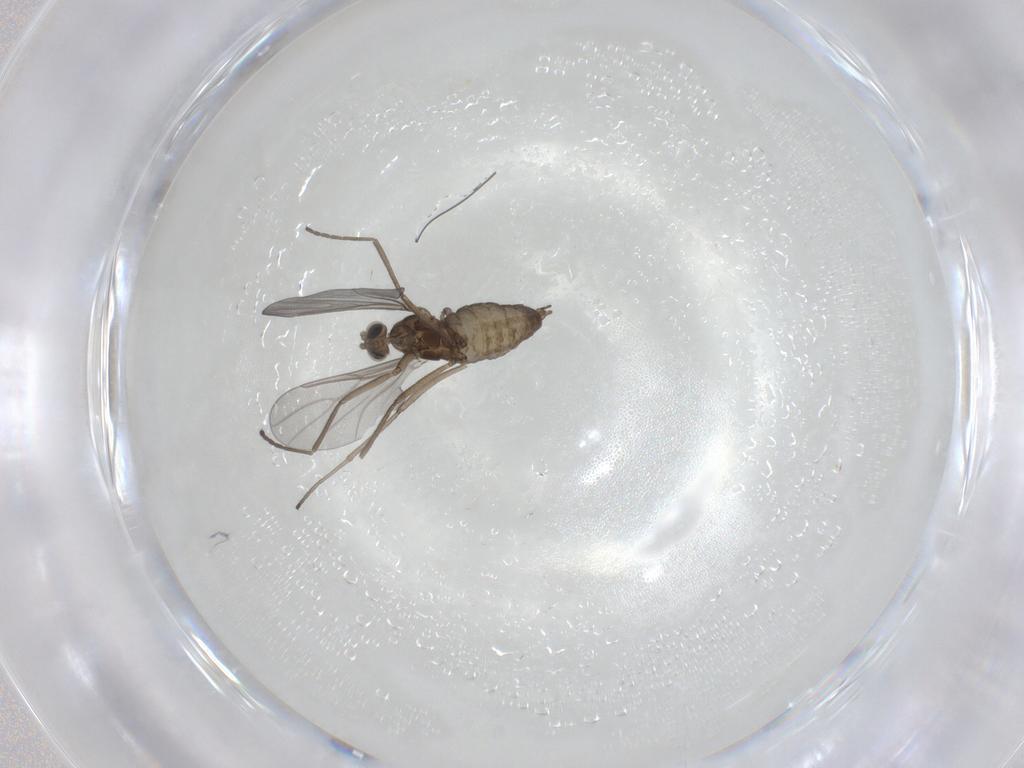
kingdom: Animalia
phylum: Arthropoda
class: Insecta
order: Diptera
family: Cecidomyiidae
